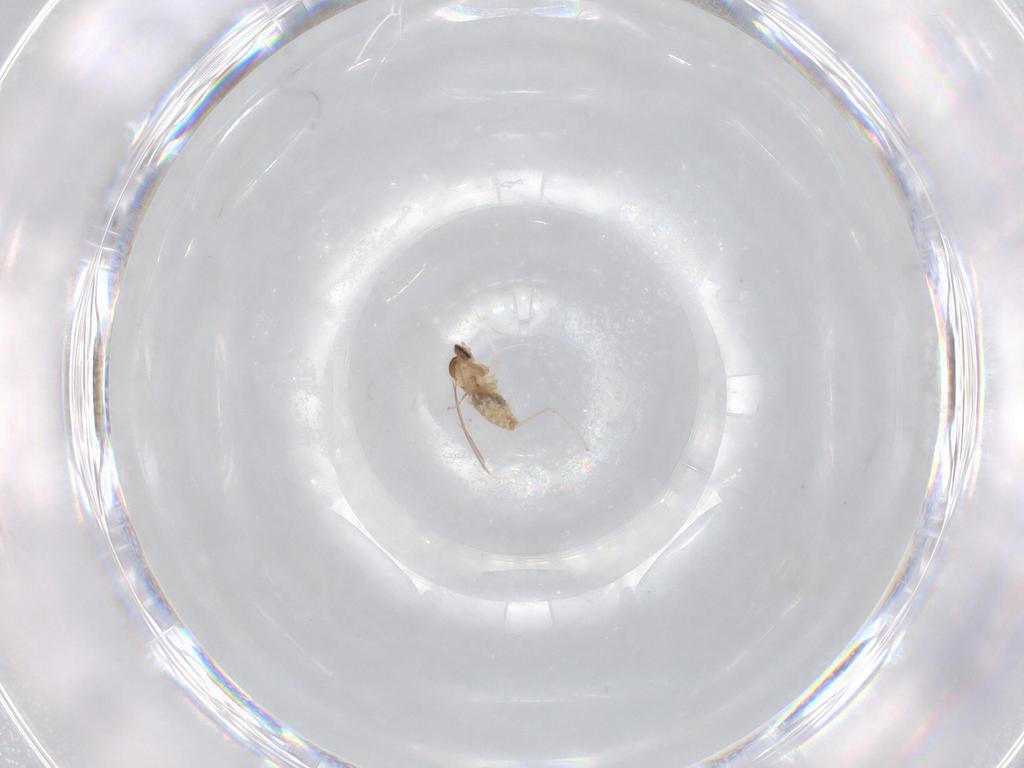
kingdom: Animalia
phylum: Arthropoda
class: Insecta
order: Diptera
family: Cecidomyiidae
